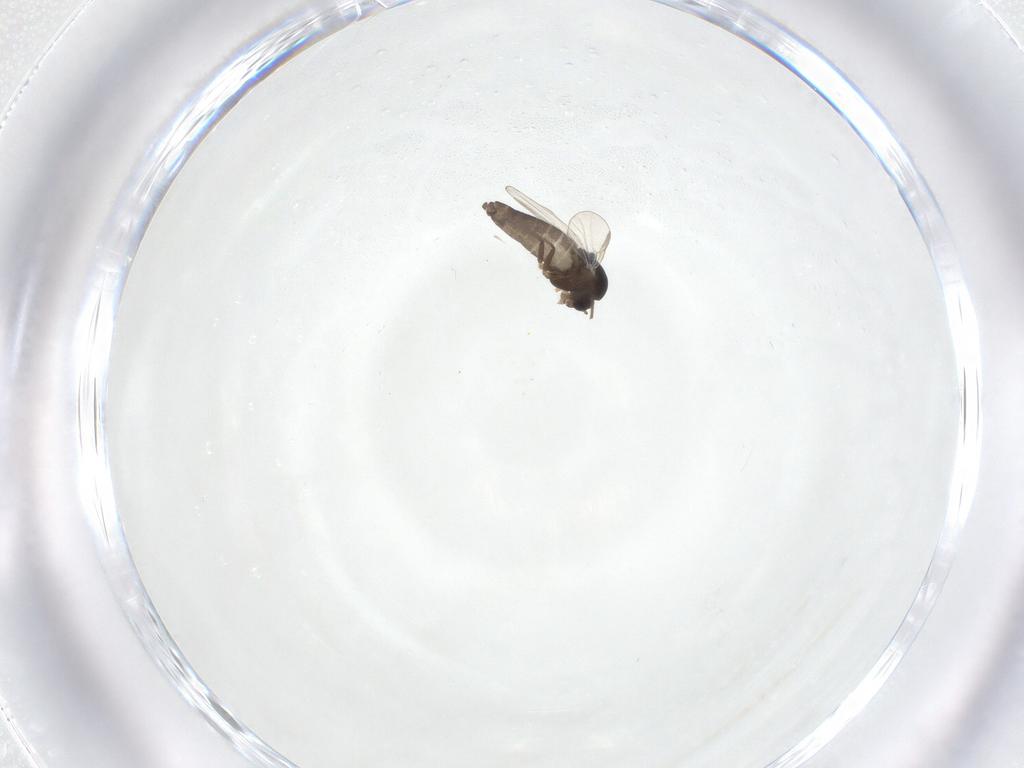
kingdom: Animalia
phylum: Arthropoda
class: Insecta
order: Diptera
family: Chironomidae
